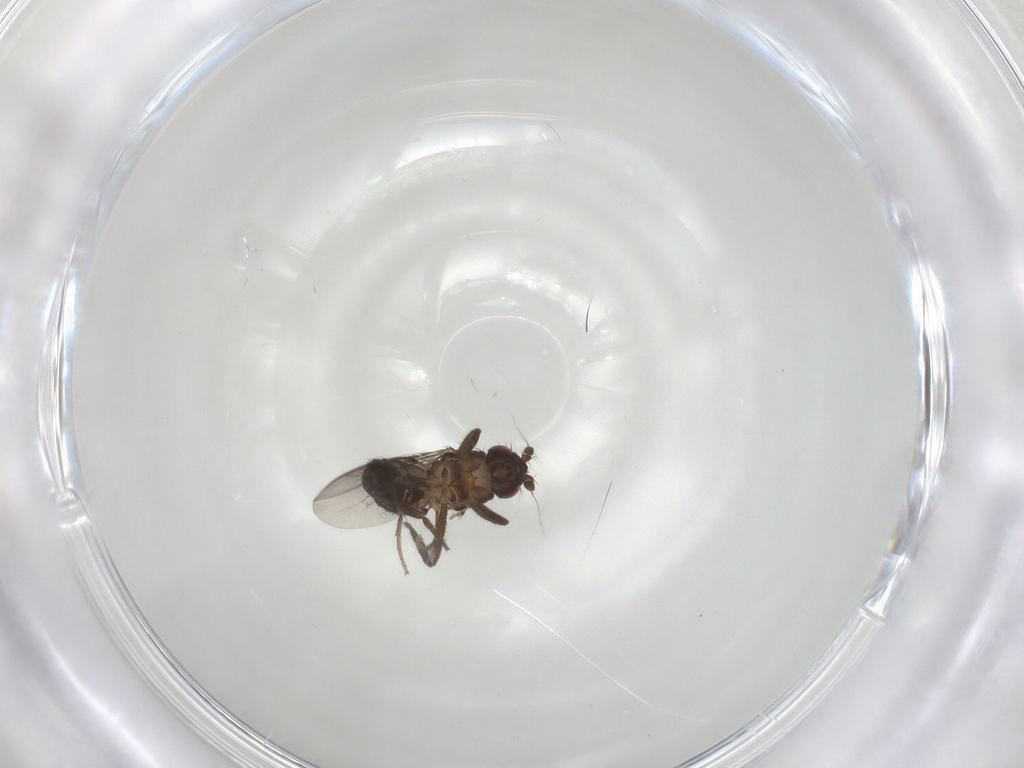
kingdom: Animalia
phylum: Arthropoda
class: Insecta
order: Diptera
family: Sphaeroceridae
